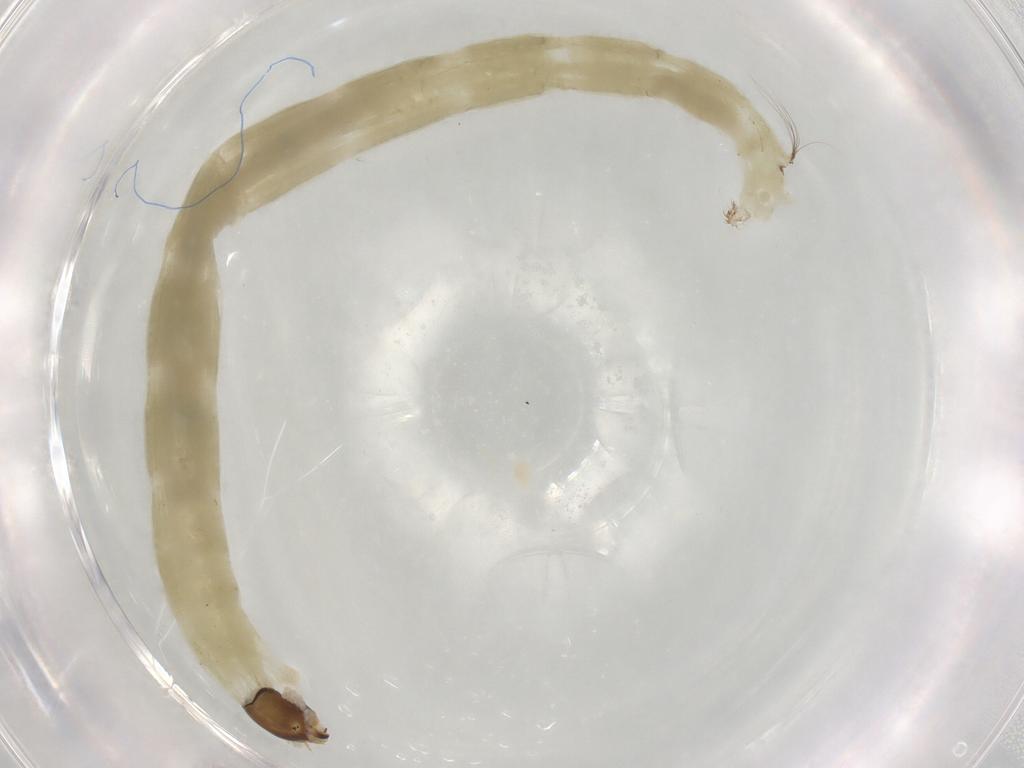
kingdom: Animalia
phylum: Arthropoda
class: Insecta
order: Diptera
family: Chironomidae
